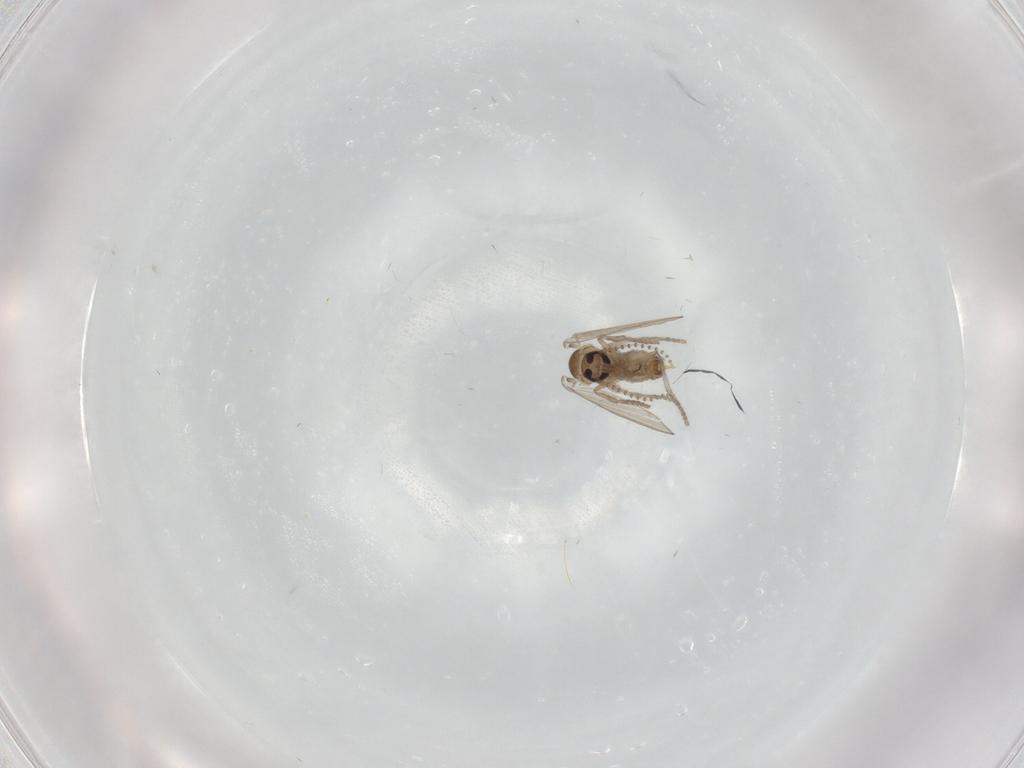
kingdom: Animalia
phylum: Arthropoda
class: Insecta
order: Diptera
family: Sciaridae
